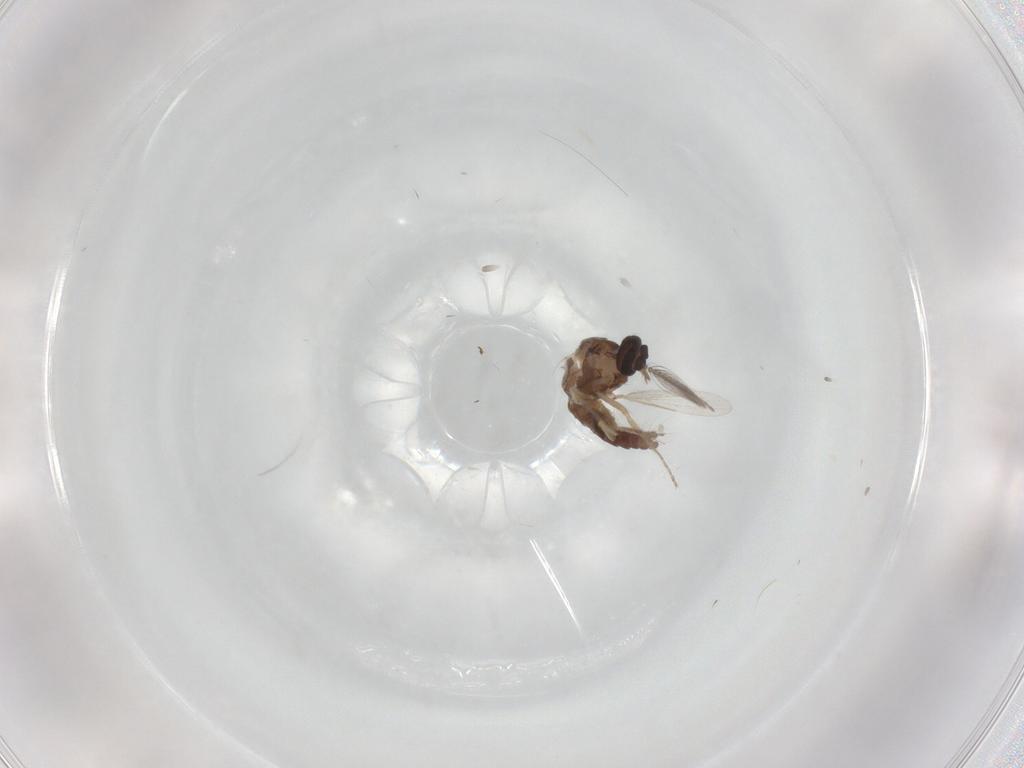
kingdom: Animalia
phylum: Arthropoda
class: Insecta
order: Diptera
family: Ceratopogonidae
